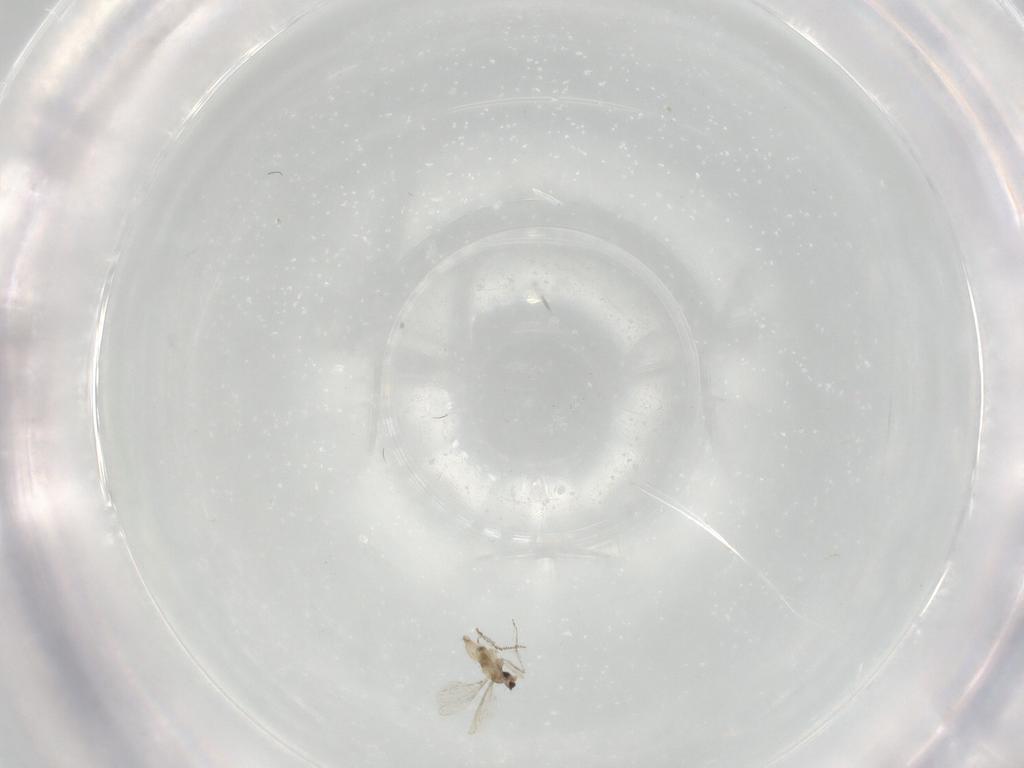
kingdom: Animalia
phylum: Arthropoda
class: Insecta
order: Diptera
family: Cecidomyiidae
